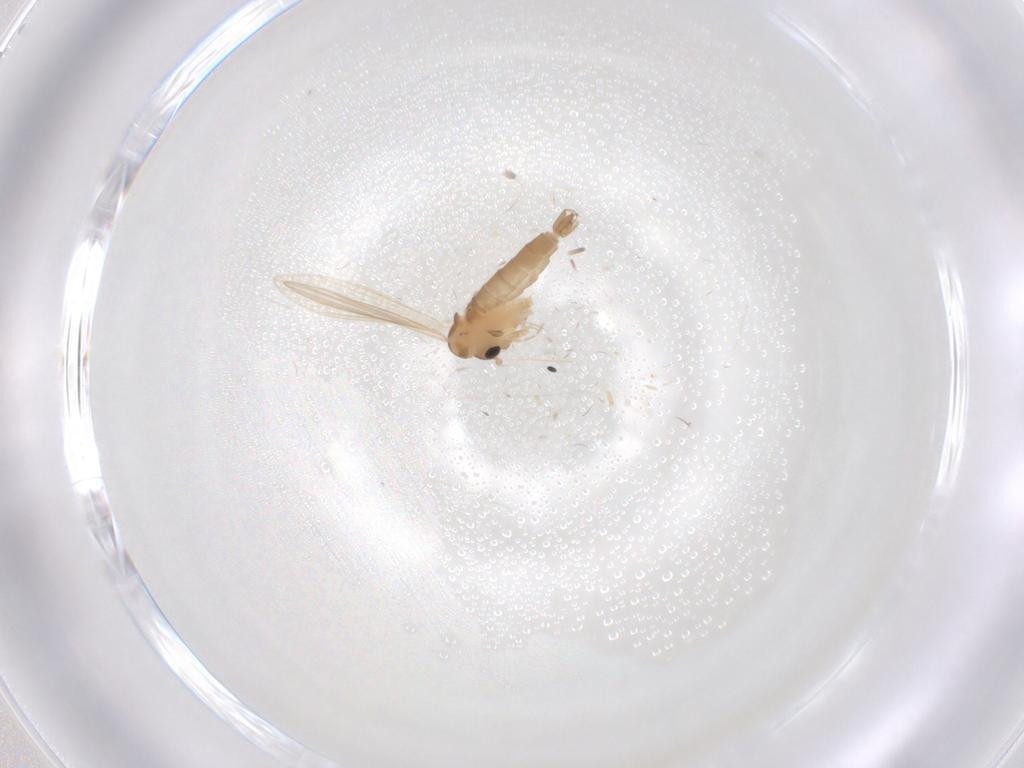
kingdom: Animalia
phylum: Arthropoda
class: Insecta
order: Diptera
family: Psychodidae
